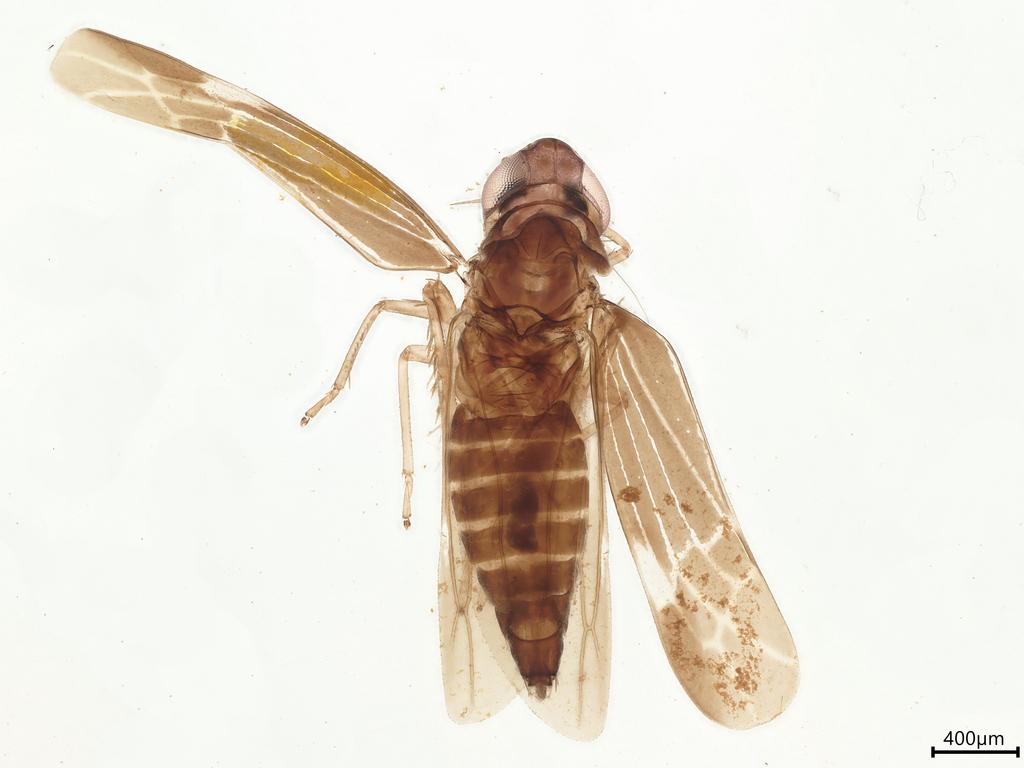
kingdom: Animalia
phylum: Arthropoda
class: Insecta
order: Hemiptera
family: Cicadellidae
